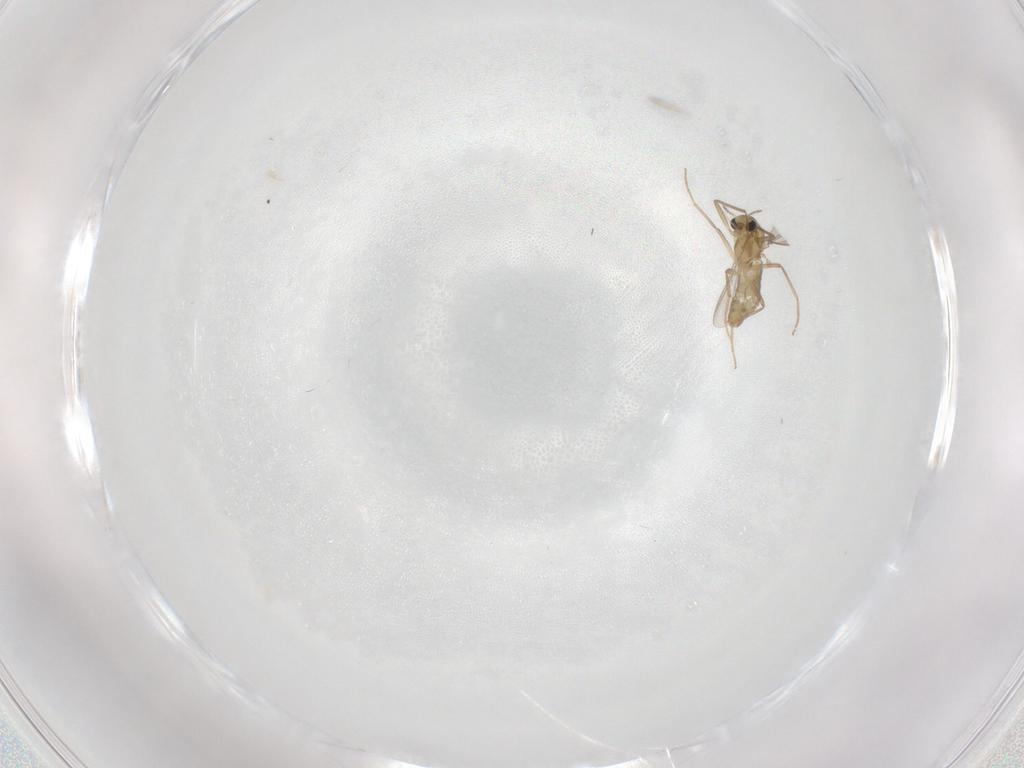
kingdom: Animalia
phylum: Arthropoda
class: Insecta
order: Diptera
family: Chironomidae
